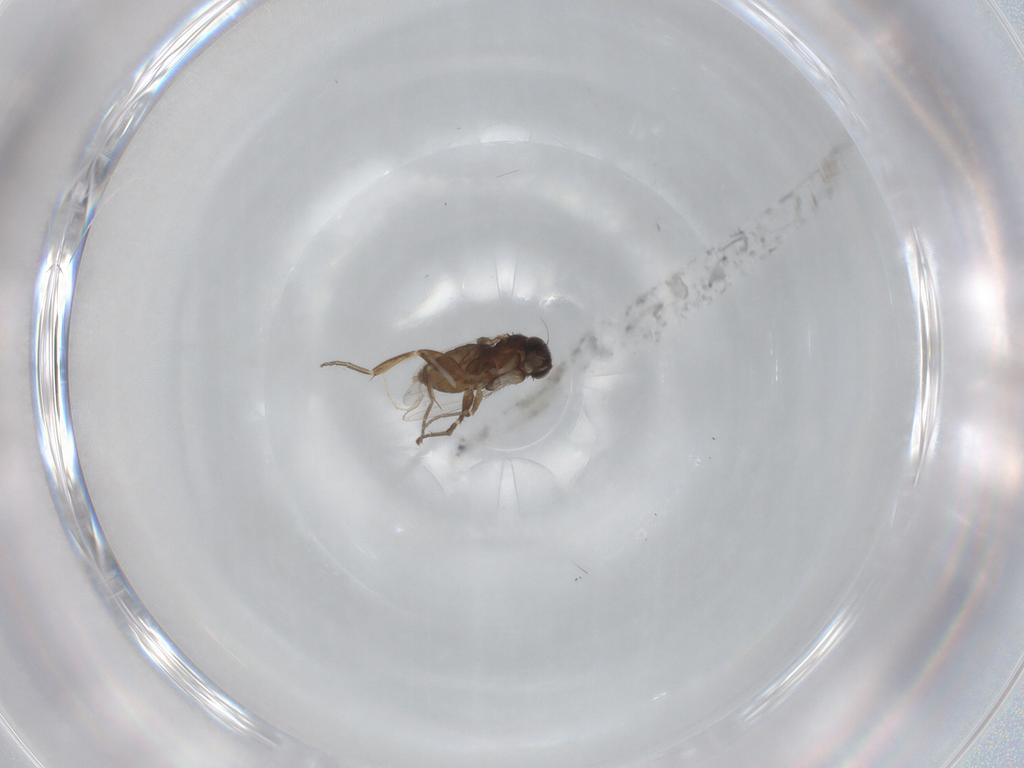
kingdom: Animalia
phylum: Arthropoda
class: Insecta
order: Diptera
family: Phoridae
